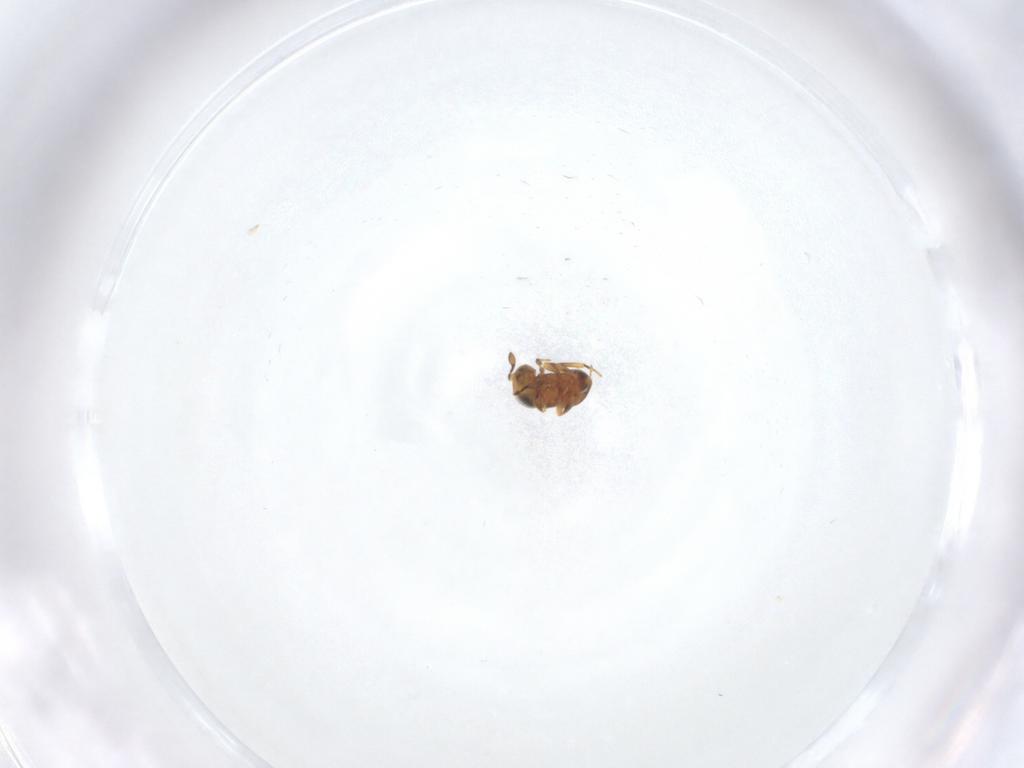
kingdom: Animalia
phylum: Arthropoda
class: Insecta
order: Hymenoptera
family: Scelionidae
